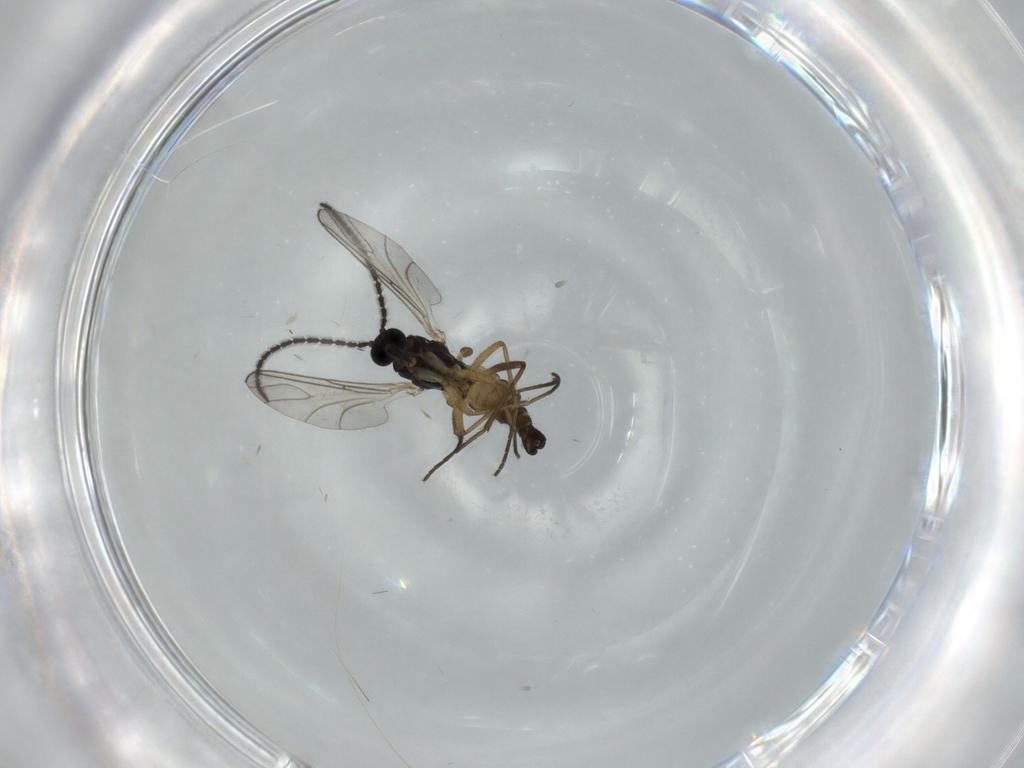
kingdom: Animalia
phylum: Arthropoda
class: Insecta
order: Diptera
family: Sciaridae
